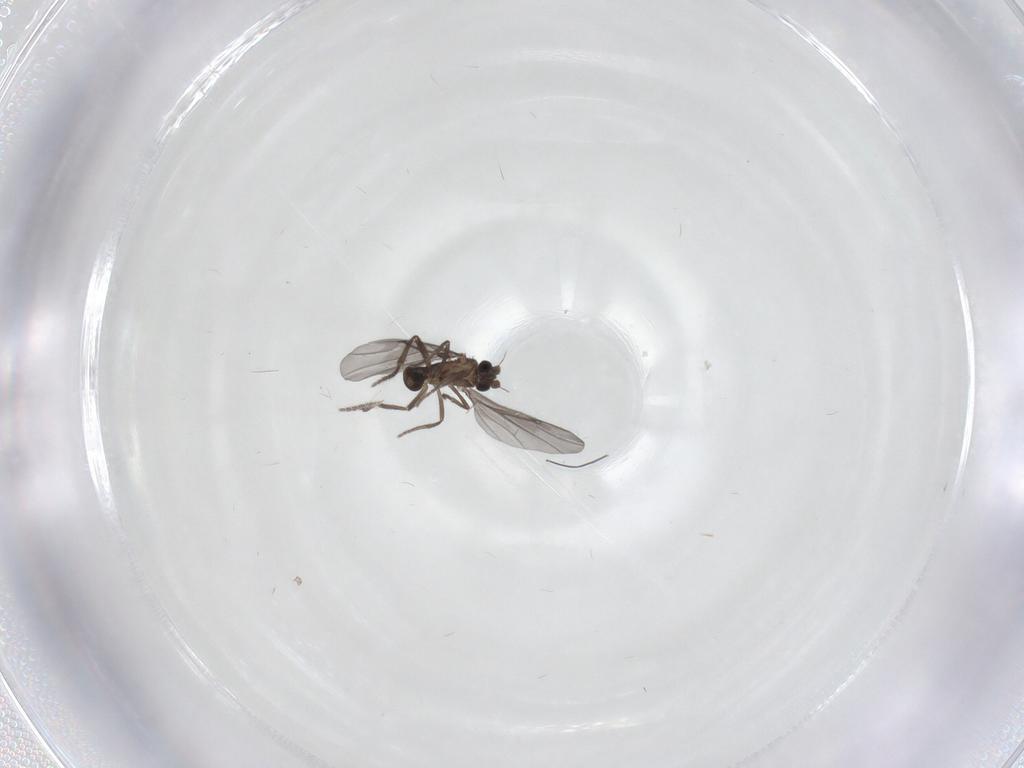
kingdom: Animalia
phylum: Arthropoda
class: Insecta
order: Diptera
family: Phoridae
